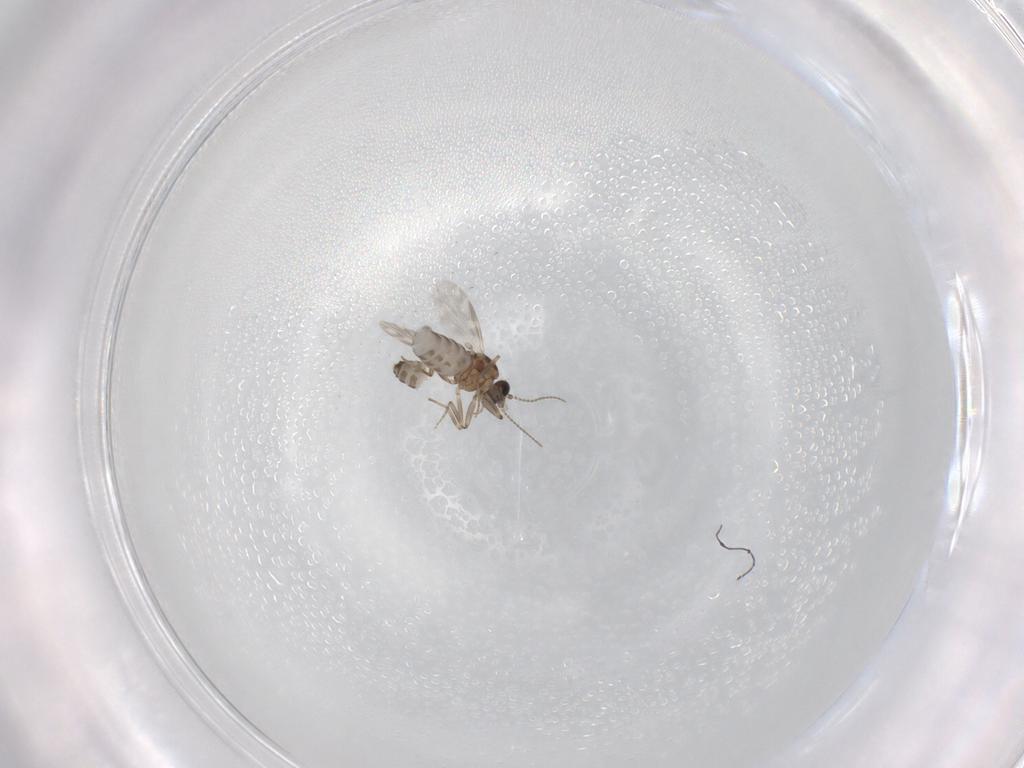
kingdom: Animalia
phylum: Arthropoda
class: Insecta
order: Diptera
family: Ceratopogonidae
